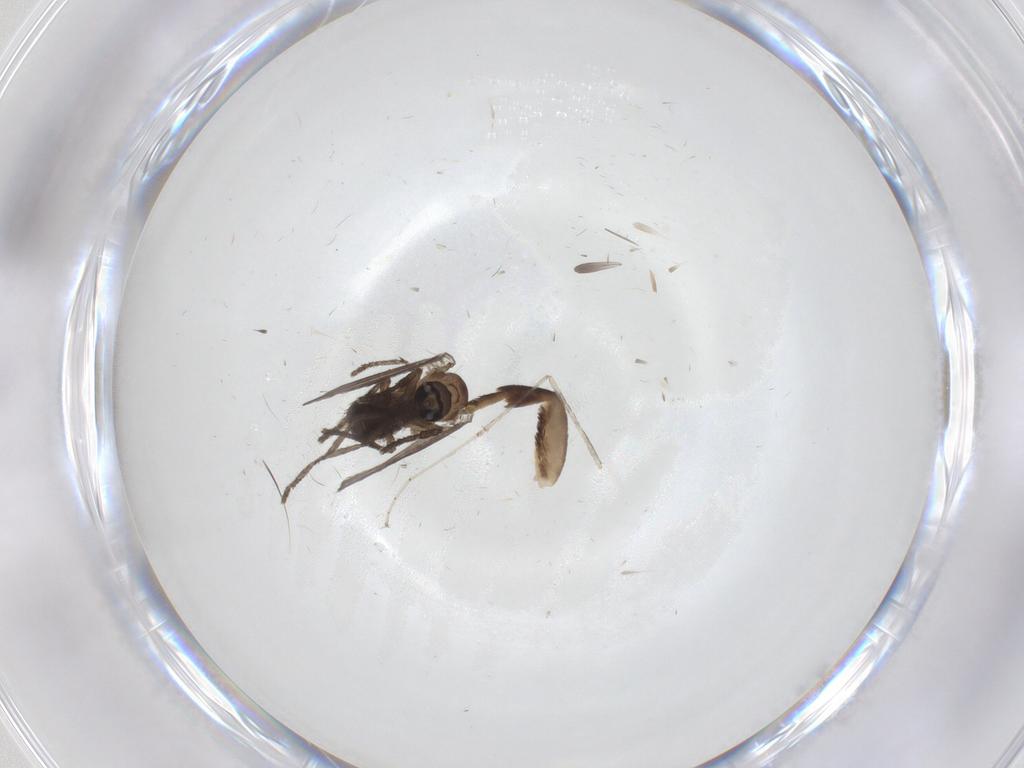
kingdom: Animalia
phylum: Arthropoda
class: Insecta
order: Diptera
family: Psychodidae
